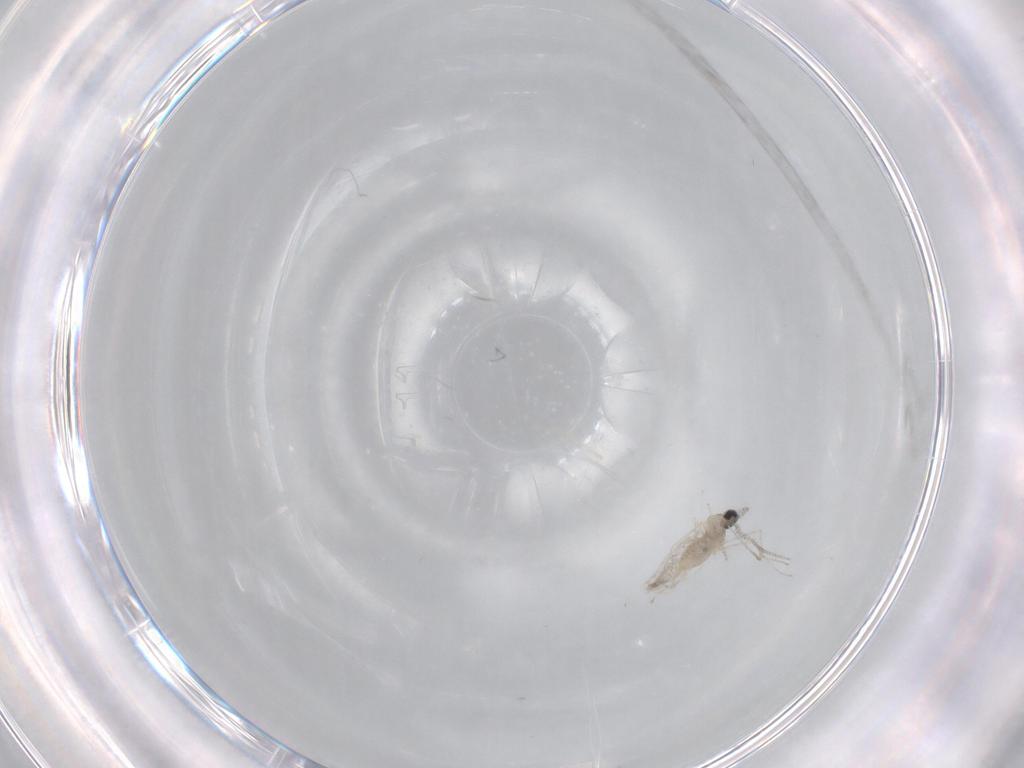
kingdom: Animalia
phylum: Arthropoda
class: Insecta
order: Diptera
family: Cecidomyiidae
